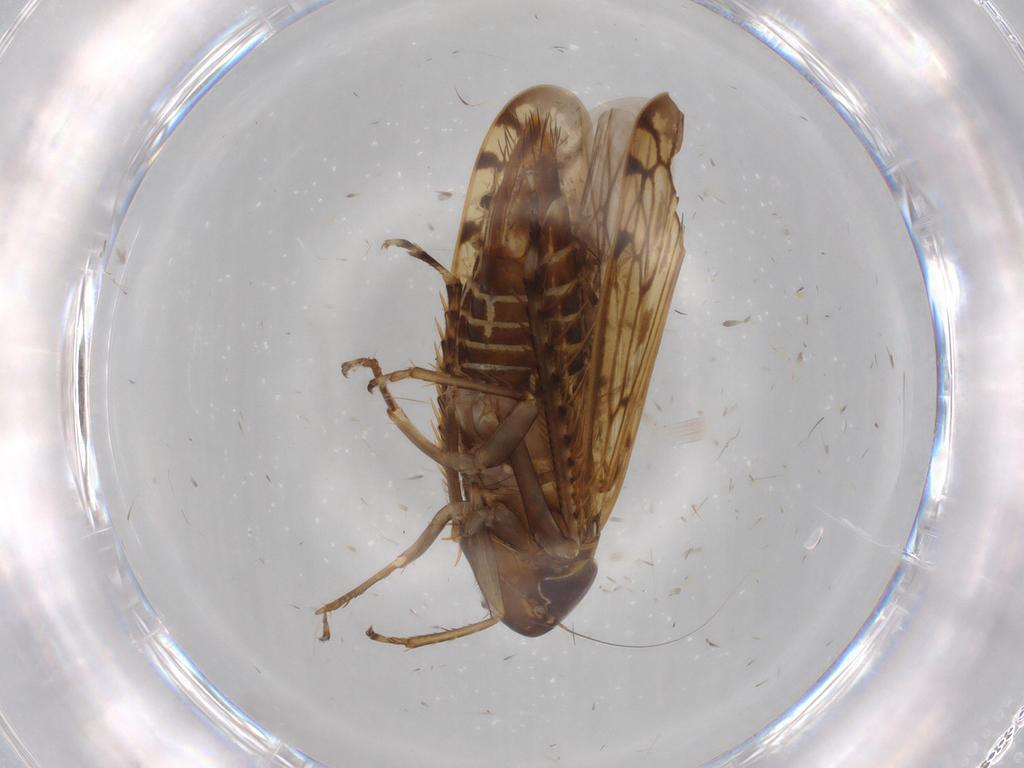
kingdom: Animalia
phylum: Arthropoda
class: Insecta
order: Hemiptera
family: Cicadellidae
